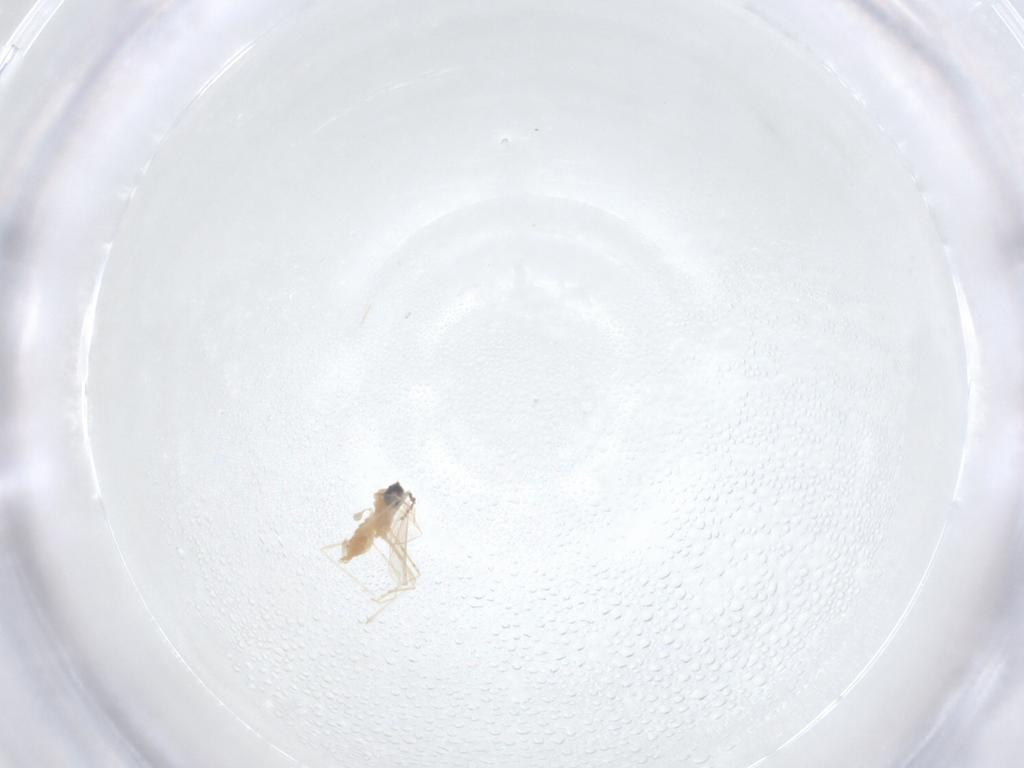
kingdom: Animalia
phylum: Arthropoda
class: Insecta
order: Diptera
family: Cecidomyiidae
